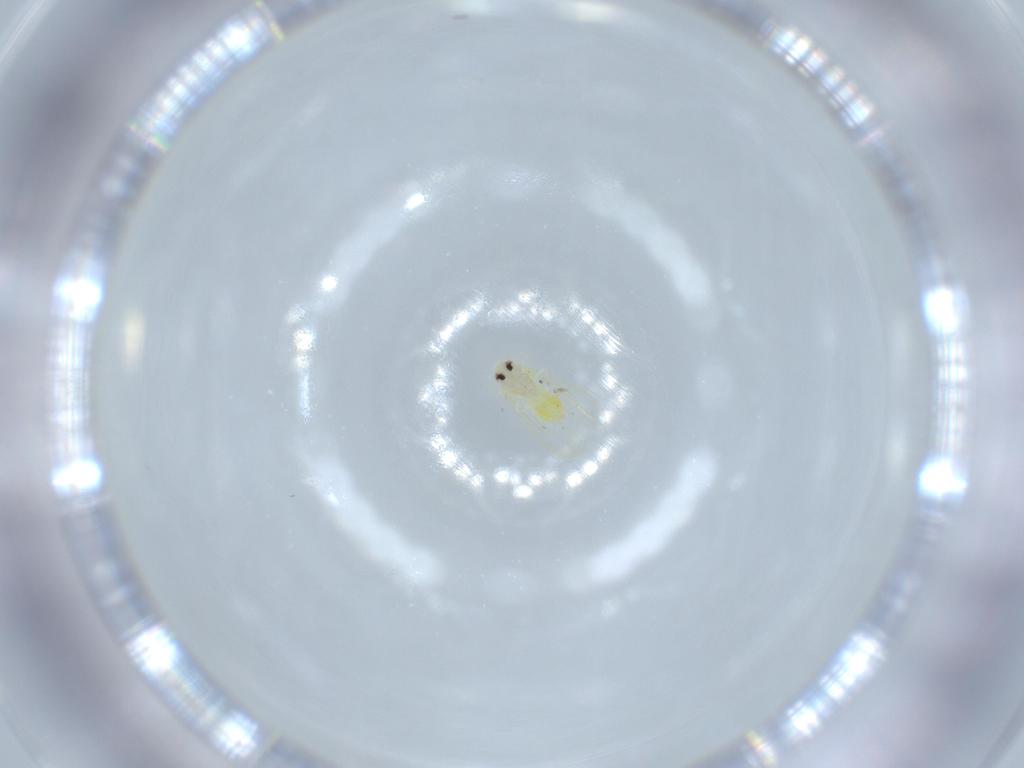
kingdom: Animalia
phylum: Arthropoda
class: Insecta
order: Hemiptera
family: Aleyrodidae
